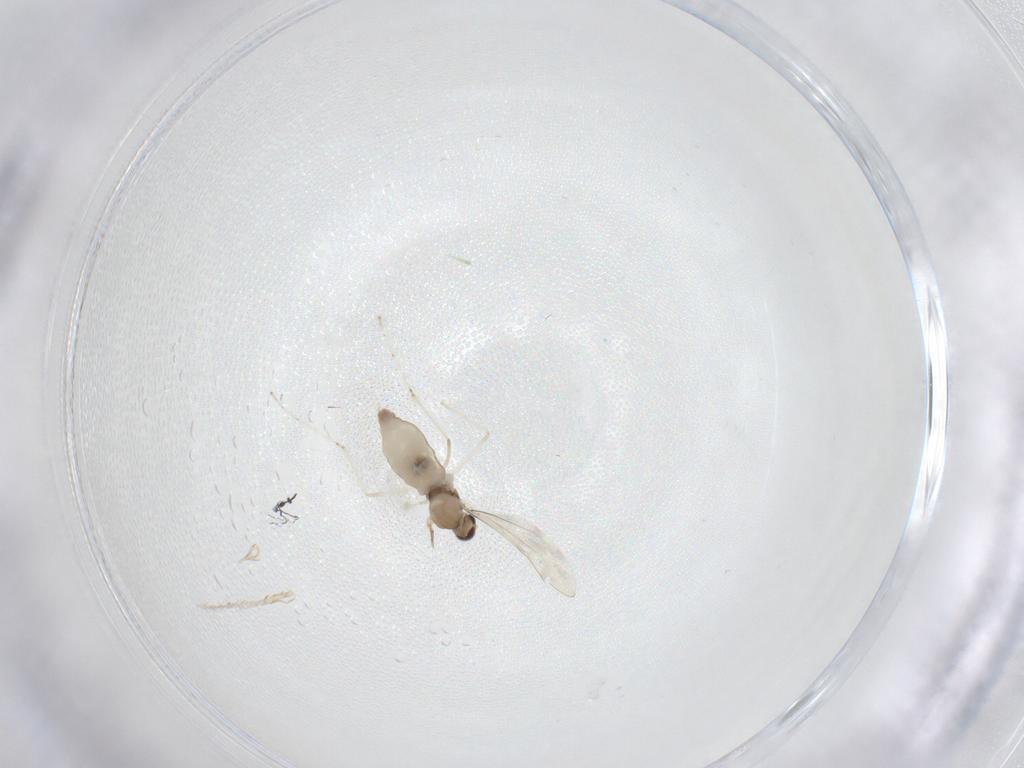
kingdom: Animalia
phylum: Arthropoda
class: Insecta
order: Diptera
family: Cecidomyiidae
